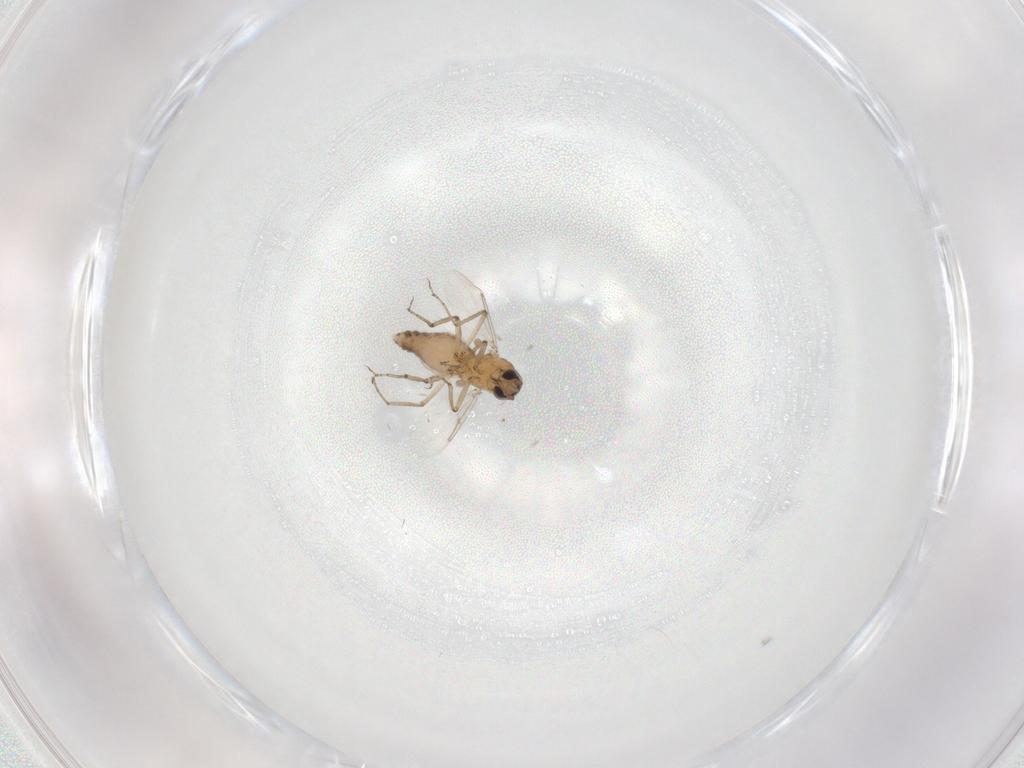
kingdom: Animalia
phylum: Arthropoda
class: Insecta
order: Diptera
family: Ceratopogonidae
